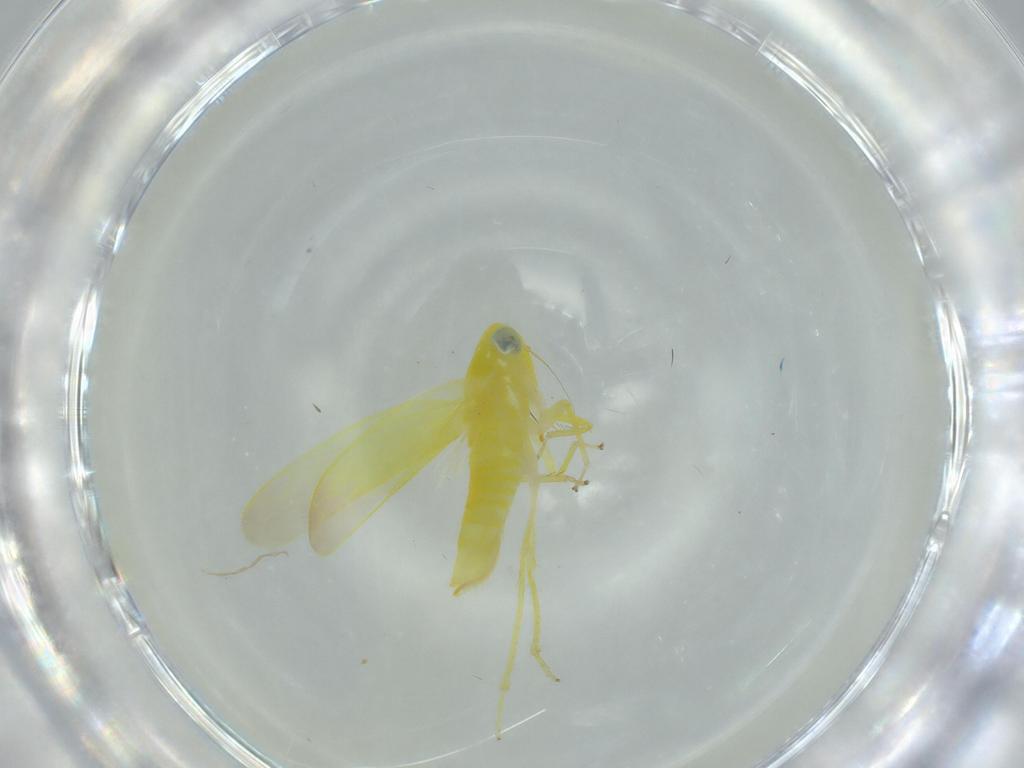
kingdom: Animalia
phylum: Arthropoda
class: Insecta
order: Hemiptera
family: Cicadellidae
